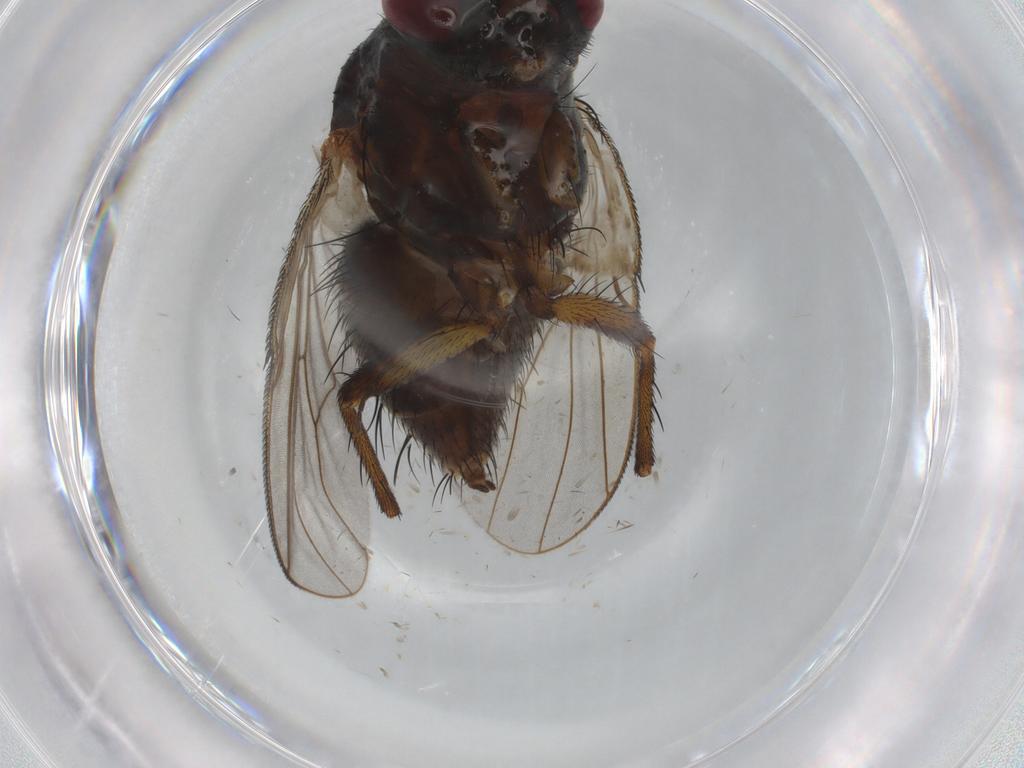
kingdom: Animalia
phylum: Arthropoda
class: Insecta
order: Diptera
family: Muscidae
